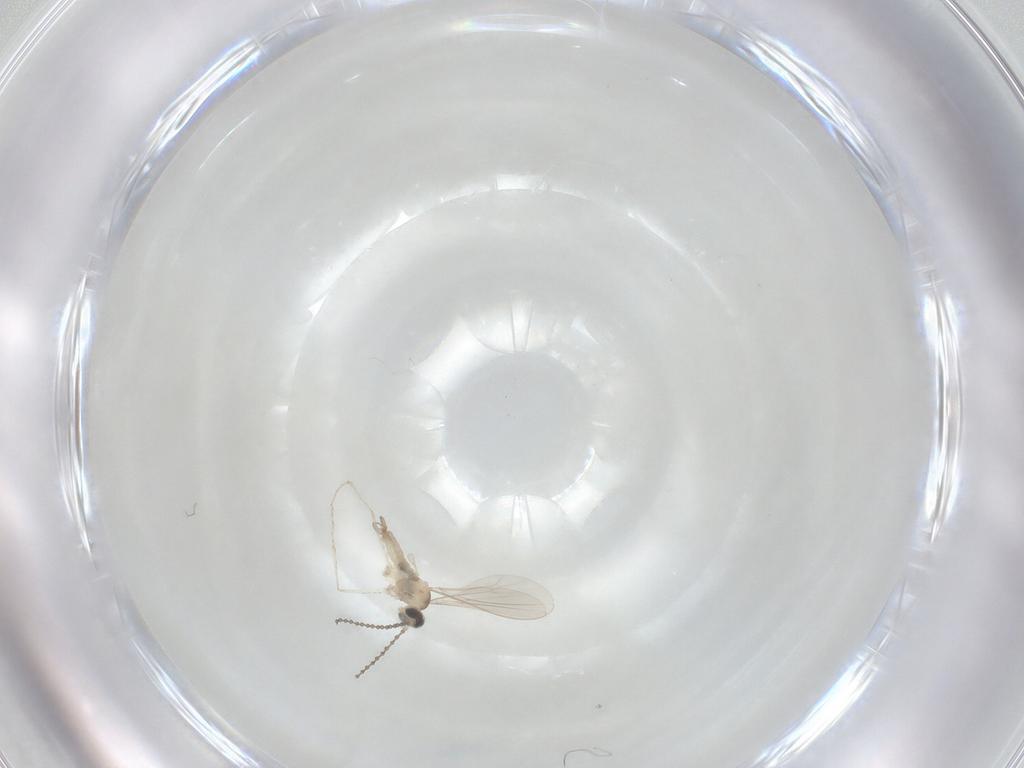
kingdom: Animalia
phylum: Arthropoda
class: Insecta
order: Diptera
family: Cecidomyiidae
